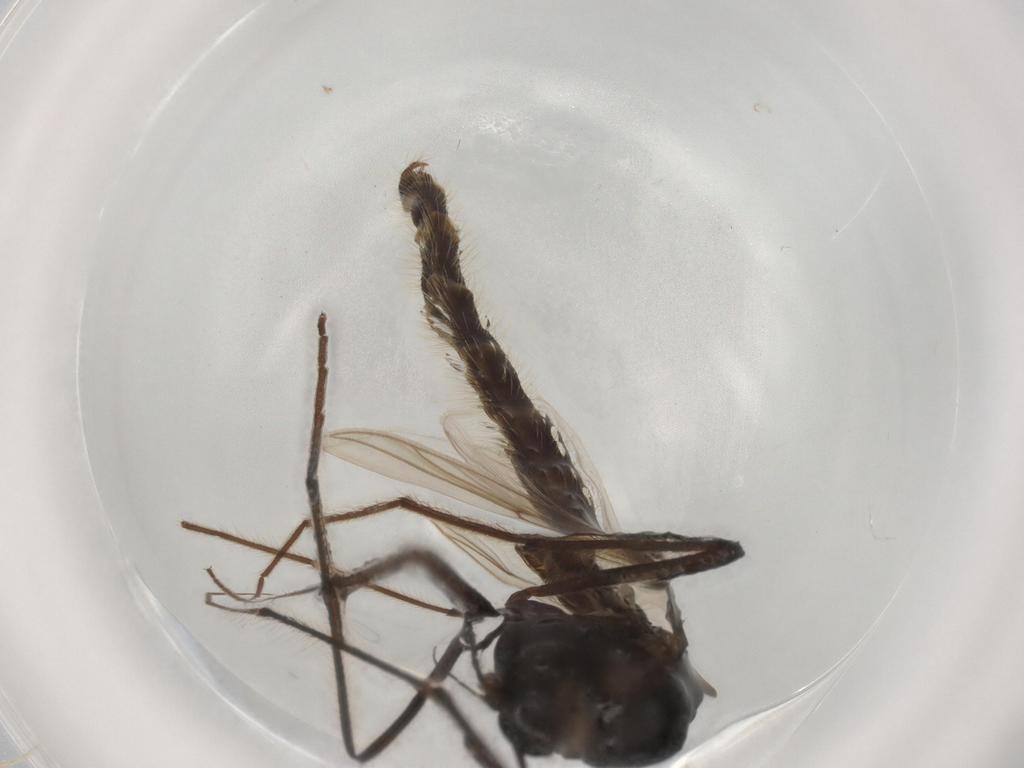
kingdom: Animalia
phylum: Arthropoda
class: Insecta
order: Diptera
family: Chironomidae
